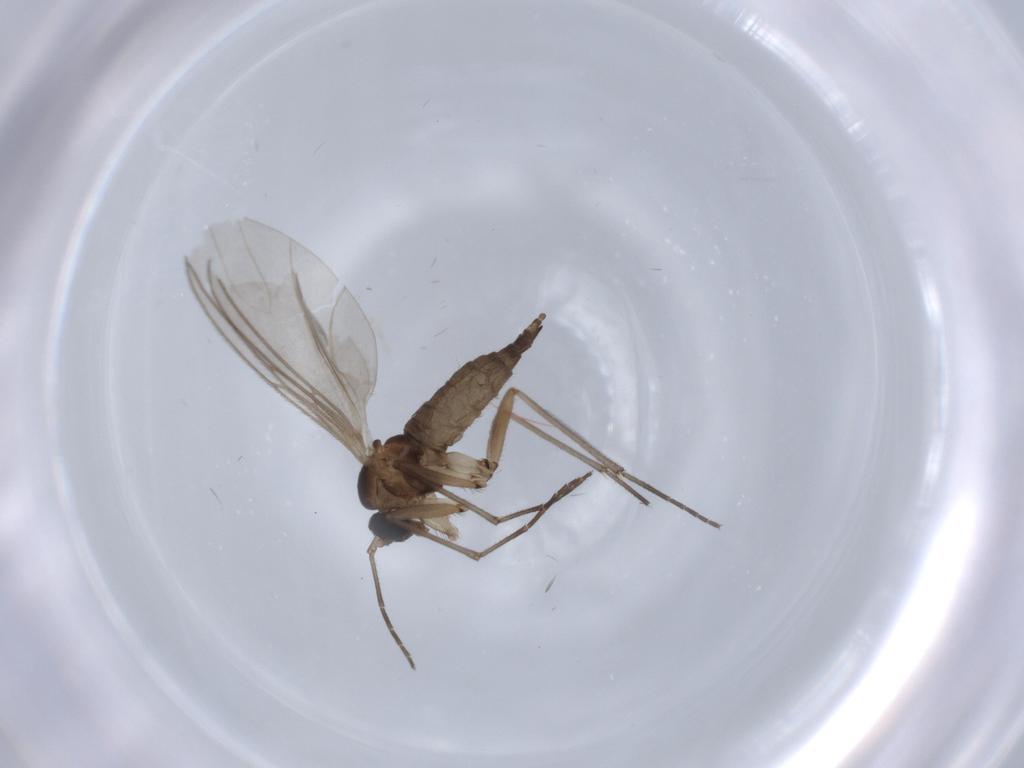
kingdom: Animalia
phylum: Arthropoda
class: Insecta
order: Diptera
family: Sciaridae
